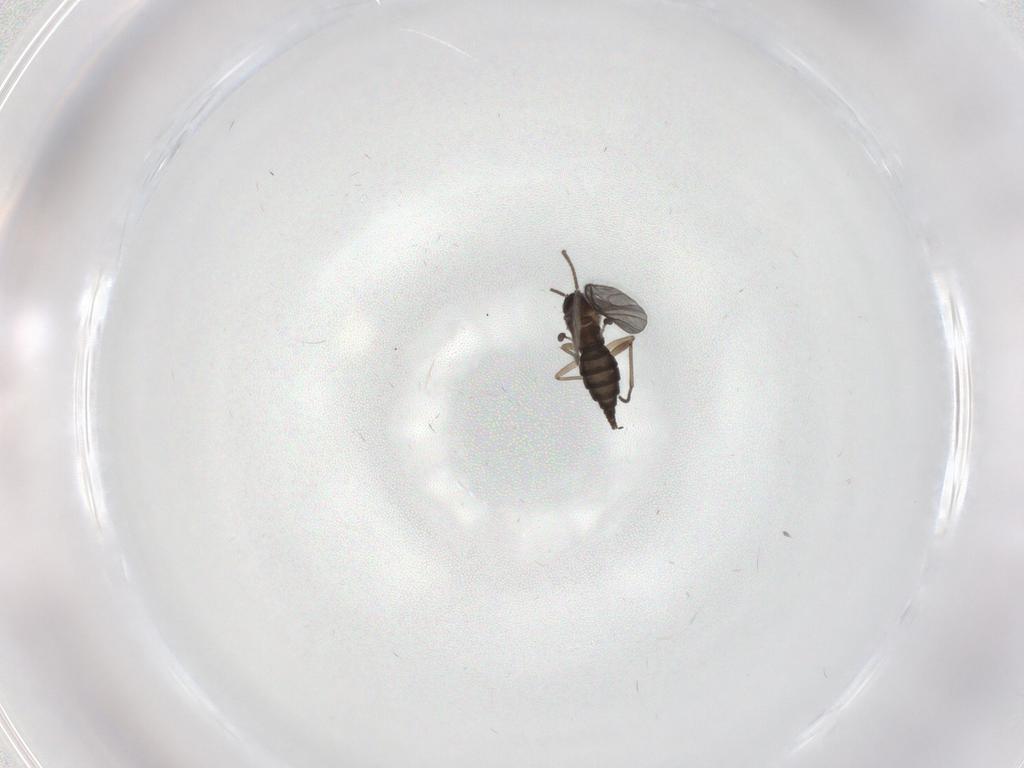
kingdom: Animalia
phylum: Arthropoda
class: Insecta
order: Diptera
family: Sciaridae
